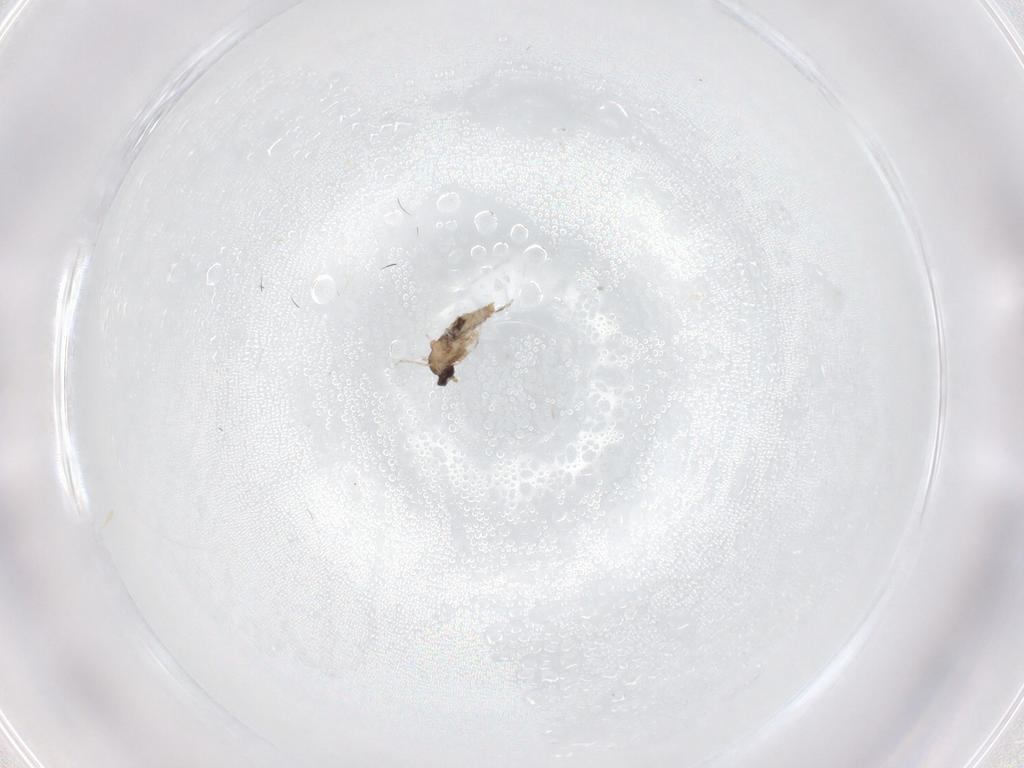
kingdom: Animalia
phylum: Arthropoda
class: Insecta
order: Diptera
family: Cecidomyiidae
